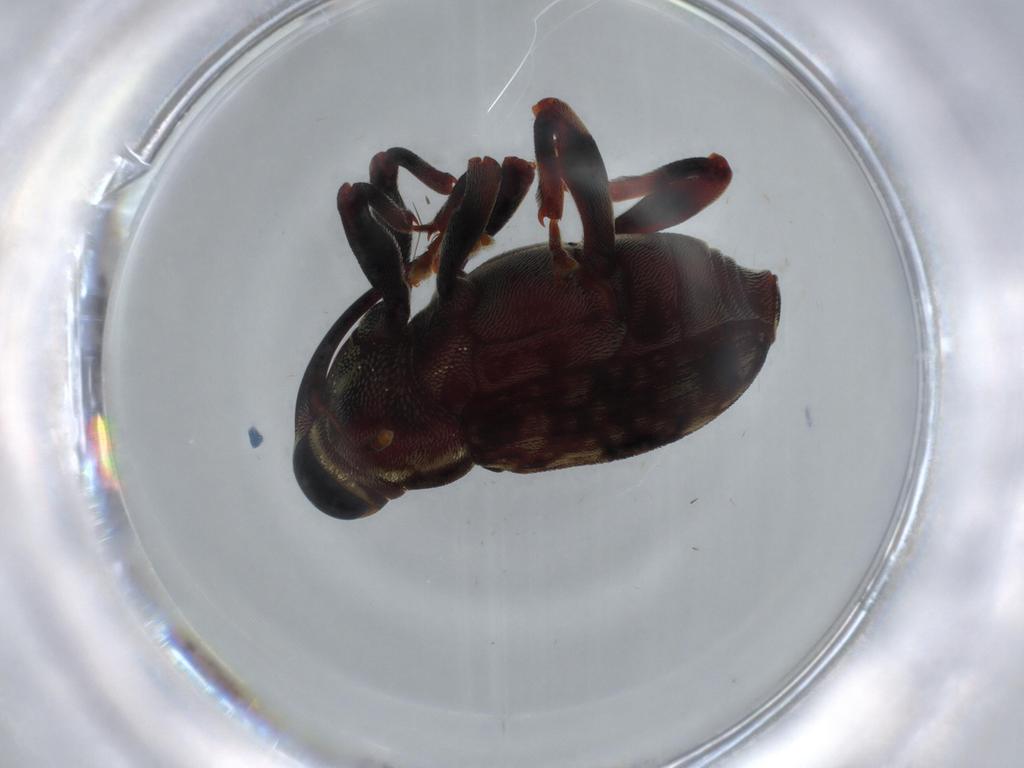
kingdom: Animalia
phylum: Arthropoda
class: Insecta
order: Coleoptera
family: Curculionidae
